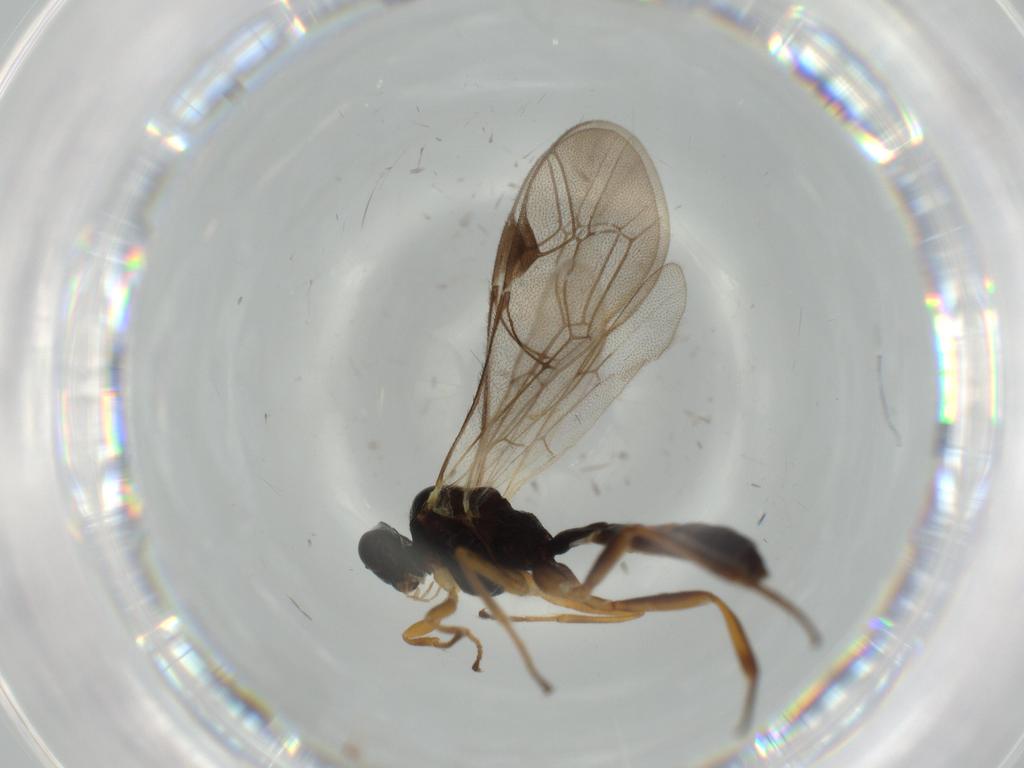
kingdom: Animalia
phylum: Arthropoda
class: Insecta
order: Hymenoptera
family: Ichneumonidae
